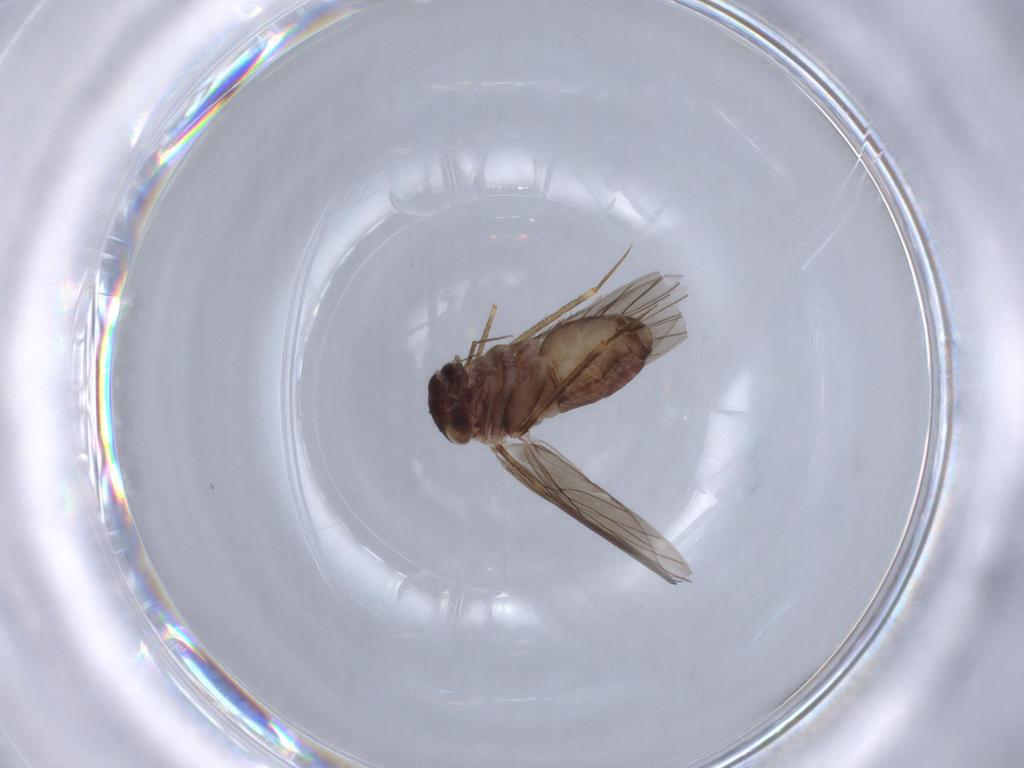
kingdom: Animalia
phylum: Arthropoda
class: Insecta
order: Psocodea
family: Lepidopsocidae
